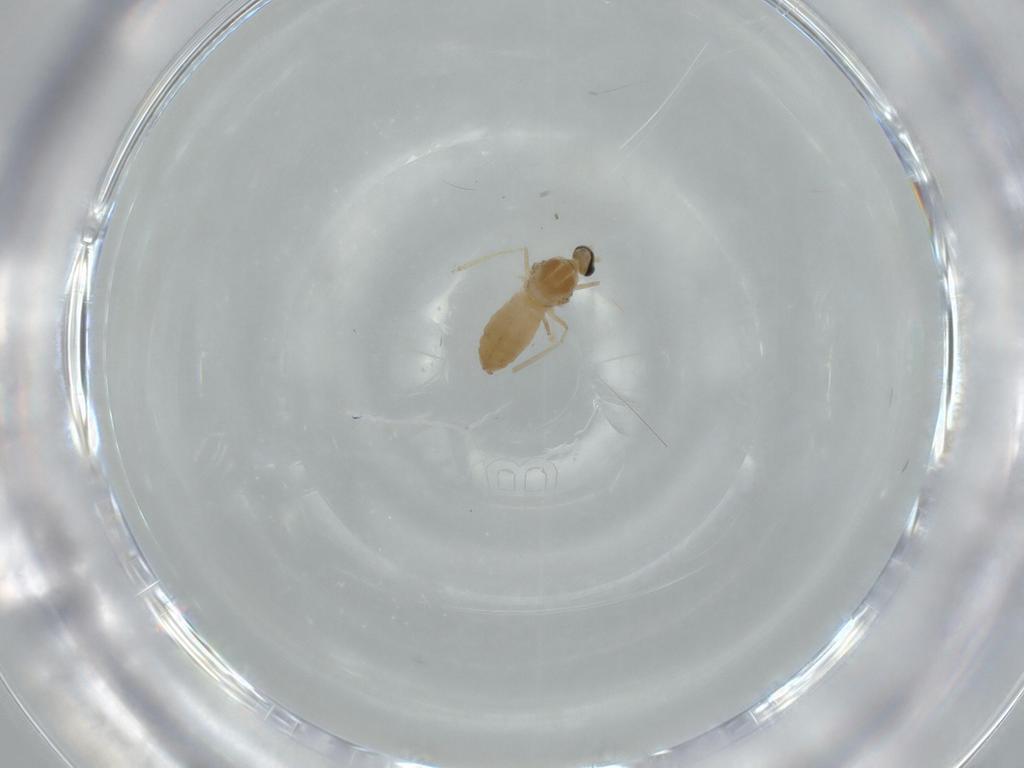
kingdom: Animalia
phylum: Arthropoda
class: Insecta
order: Diptera
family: Cecidomyiidae
